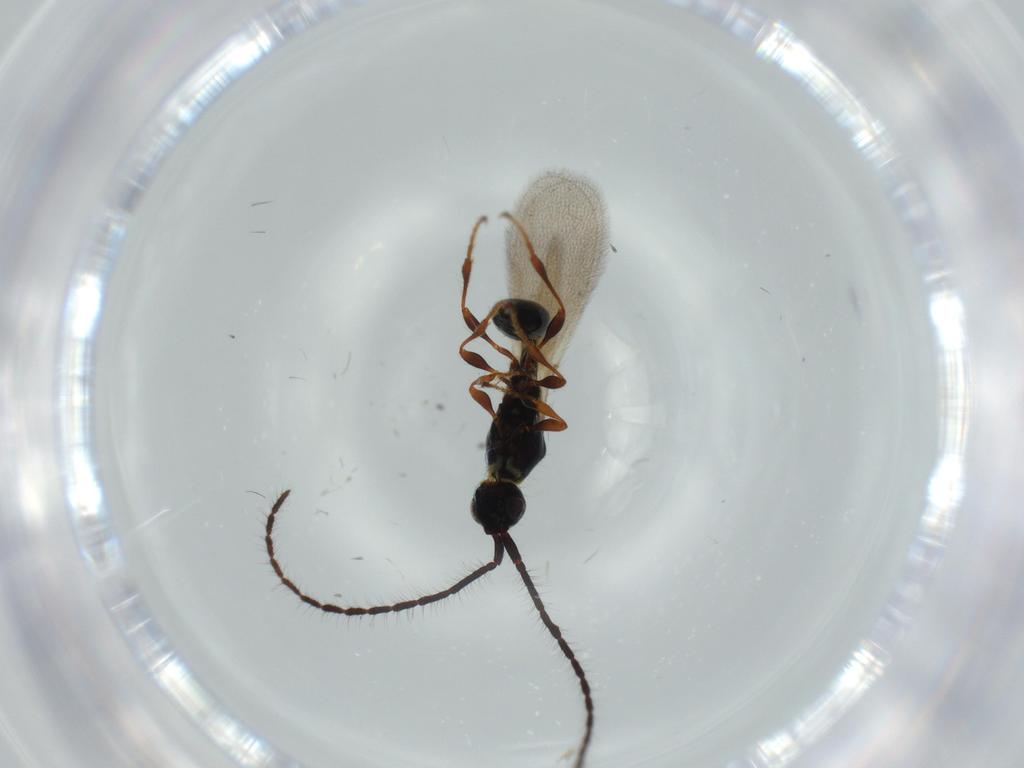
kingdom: Animalia
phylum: Arthropoda
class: Insecta
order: Hymenoptera
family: Diapriidae
